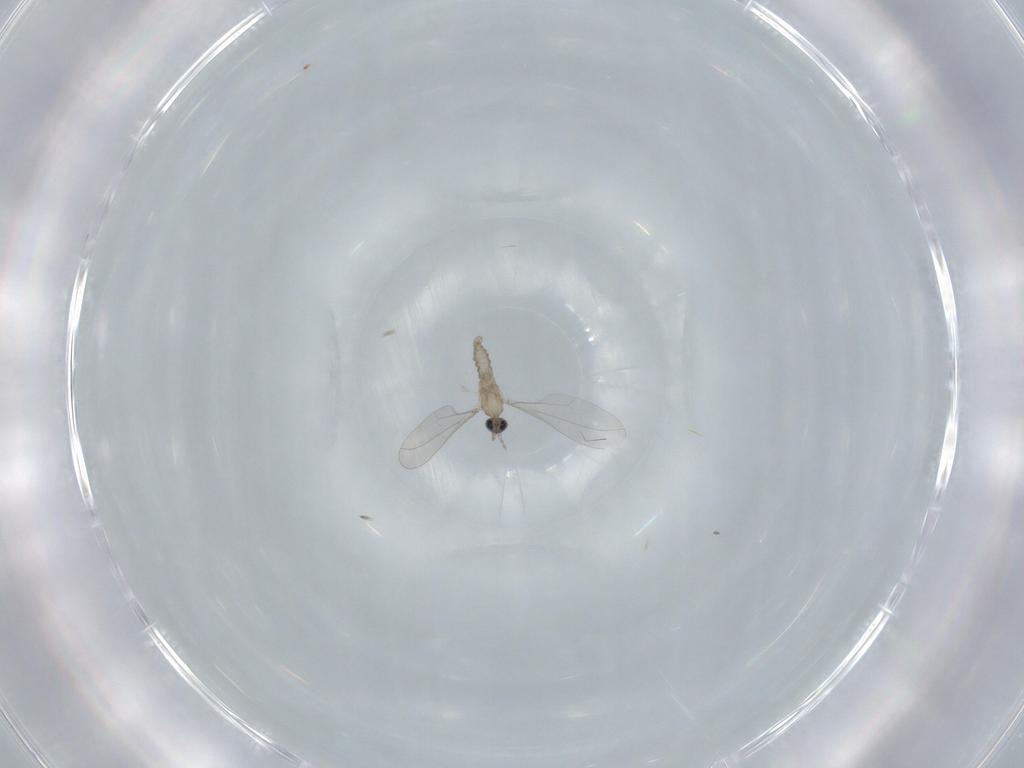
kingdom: Animalia
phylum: Arthropoda
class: Insecta
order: Diptera
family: Cecidomyiidae
